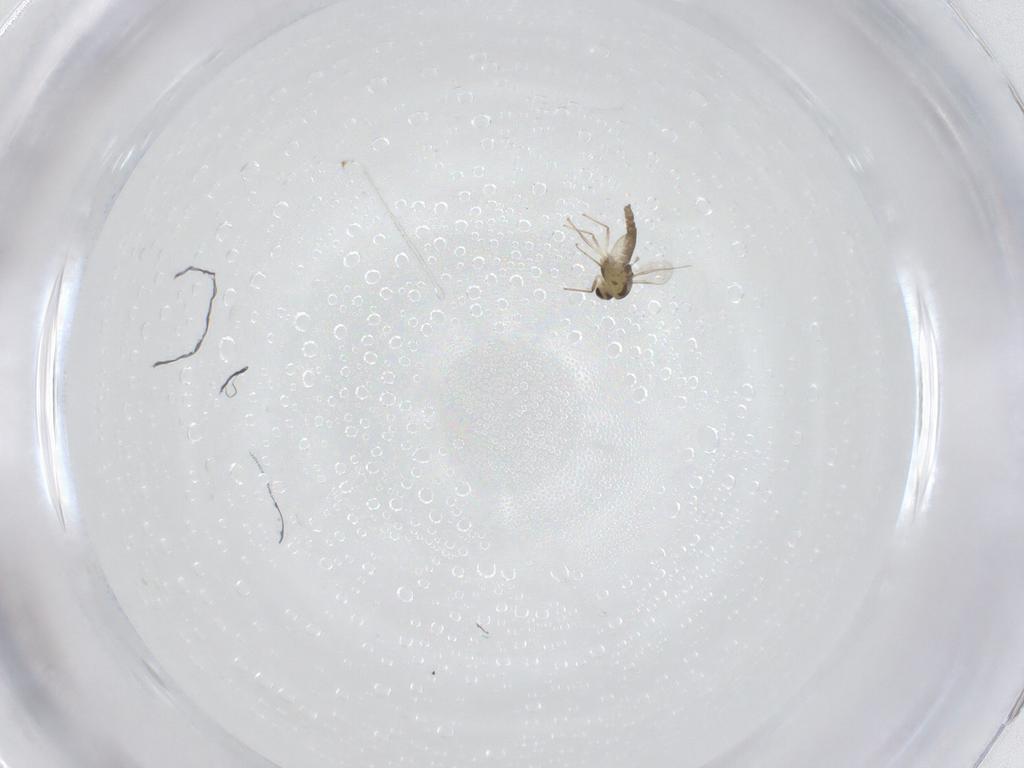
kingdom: Animalia
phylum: Arthropoda
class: Insecta
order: Diptera
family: Chironomidae
